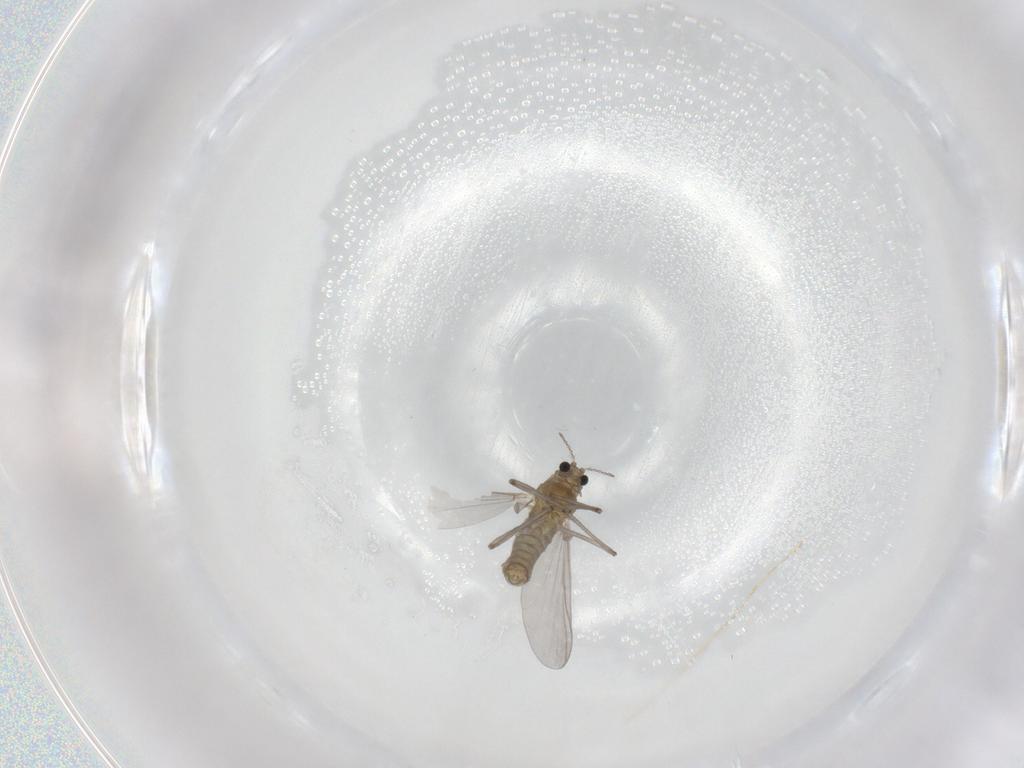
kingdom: Animalia
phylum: Arthropoda
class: Insecta
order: Diptera
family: Chironomidae
